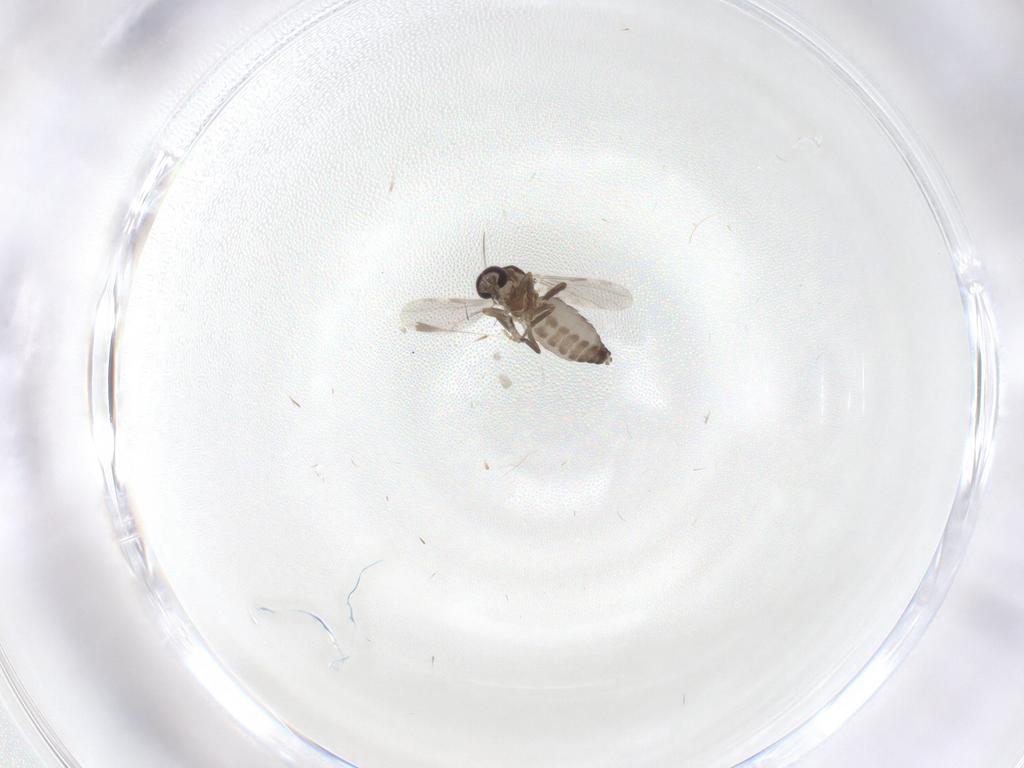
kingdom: Animalia
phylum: Arthropoda
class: Insecta
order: Diptera
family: Ceratopogonidae
